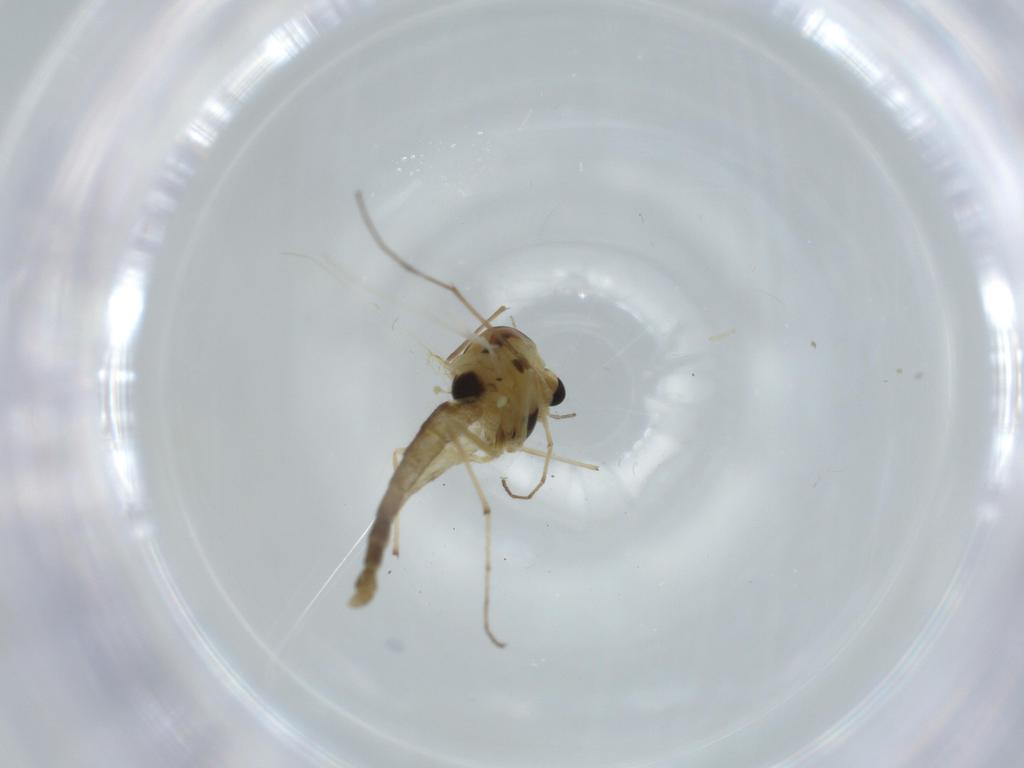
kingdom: Animalia
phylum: Arthropoda
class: Insecta
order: Diptera
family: Chironomidae
